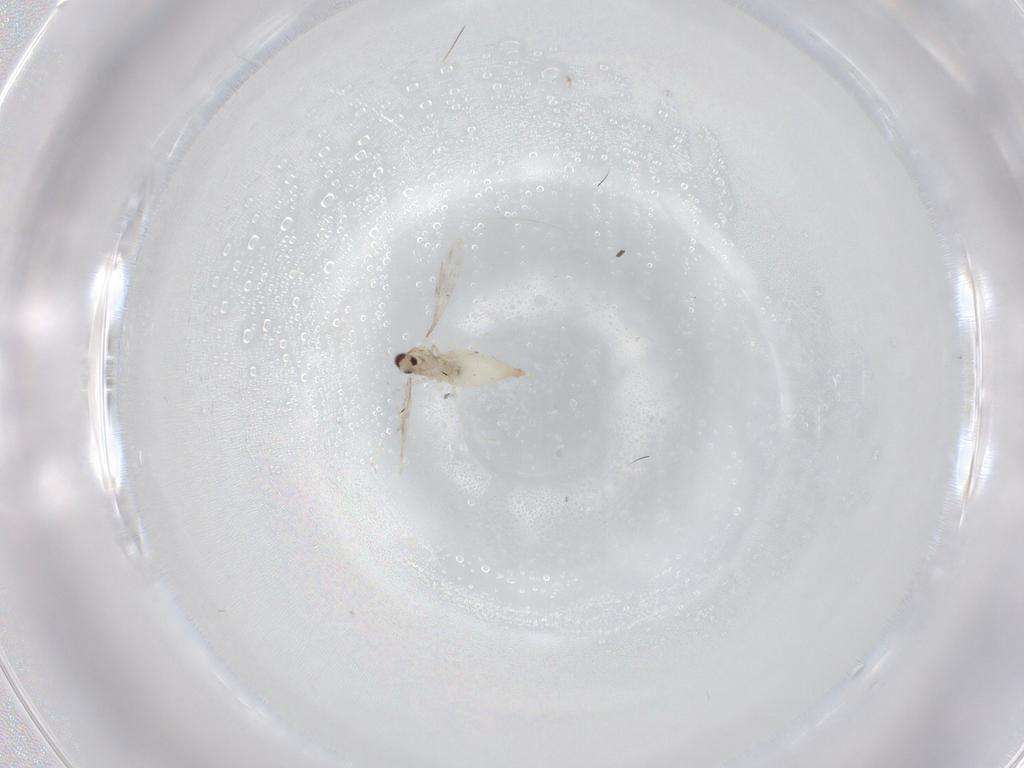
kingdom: Animalia
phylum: Arthropoda
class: Insecta
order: Diptera
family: Cecidomyiidae
